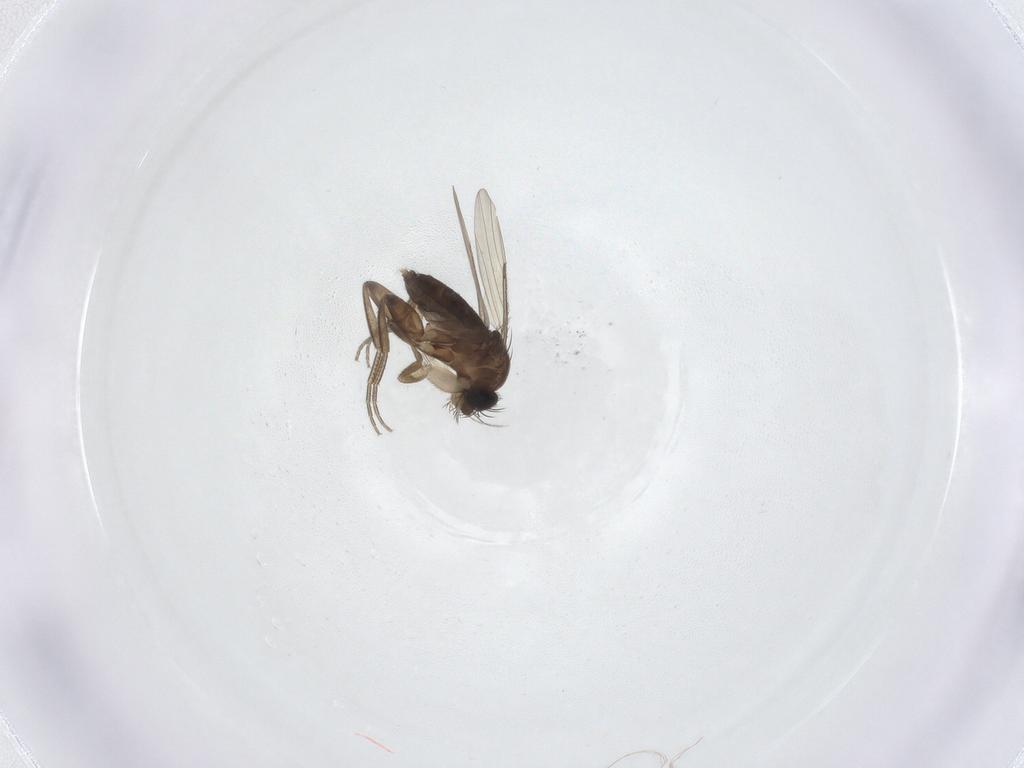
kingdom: Animalia
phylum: Arthropoda
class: Insecta
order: Diptera
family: Phoridae
